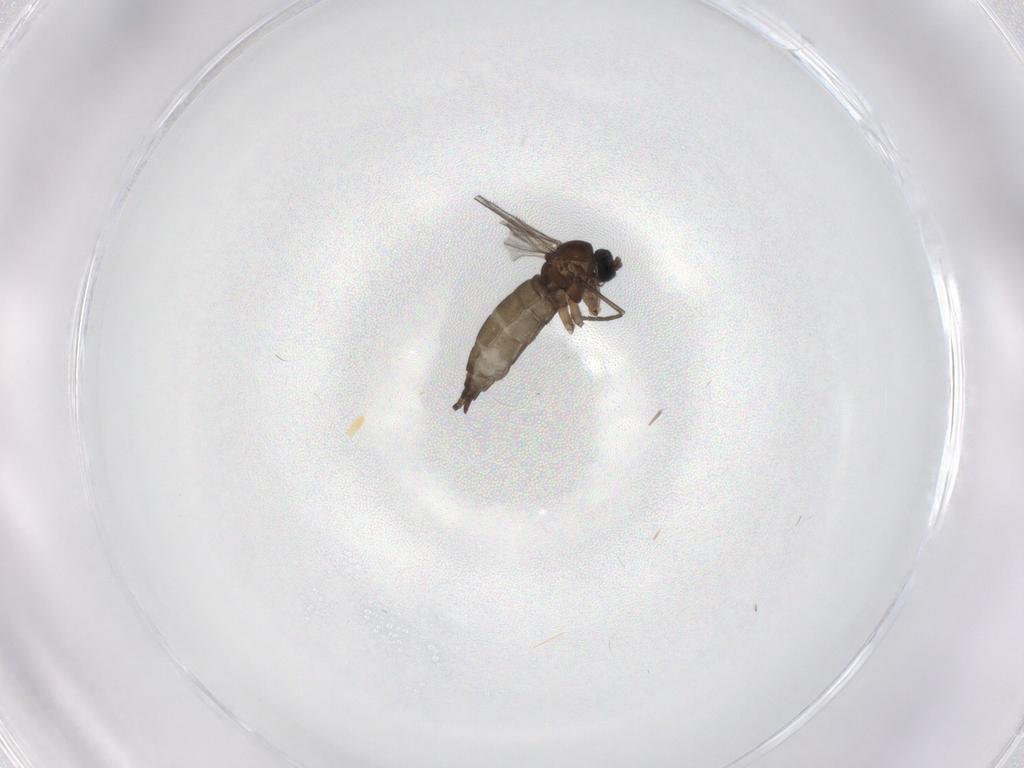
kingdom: Animalia
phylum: Arthropoda
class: Insecta
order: Diptera
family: Sciaridae
